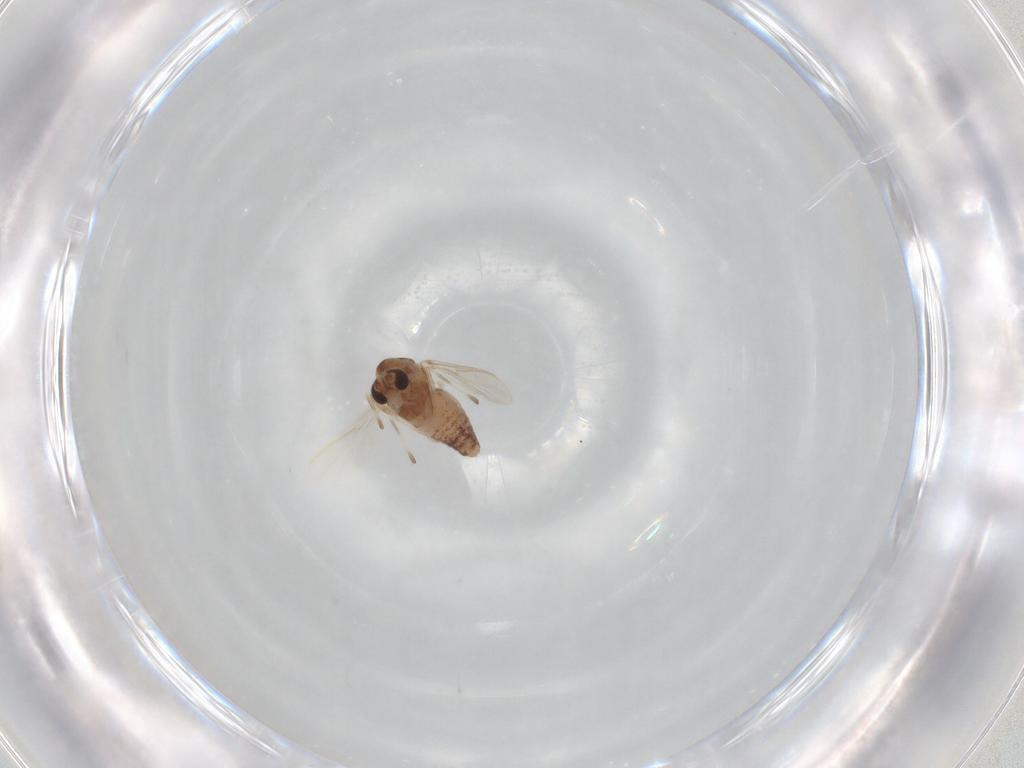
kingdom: Animalia
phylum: Arthropoda
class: Insecta
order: Diptera
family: Chironomidae
